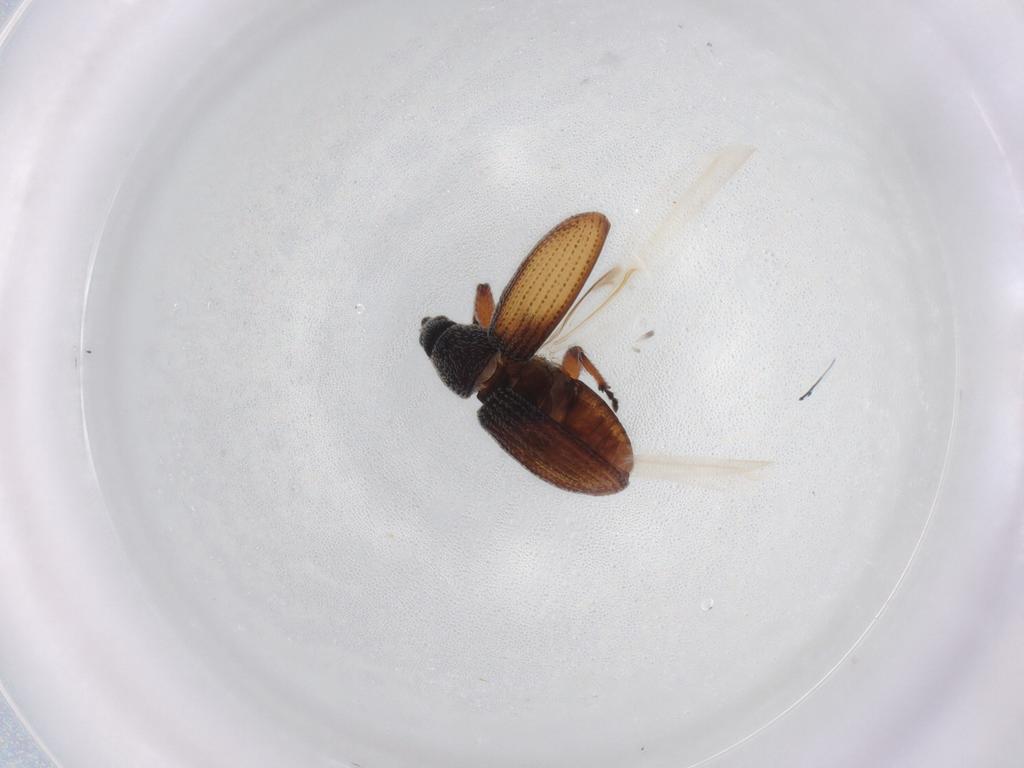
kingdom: Animalia
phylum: Arthropoda
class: Insecta
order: Coleoptera
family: Curculionidae
